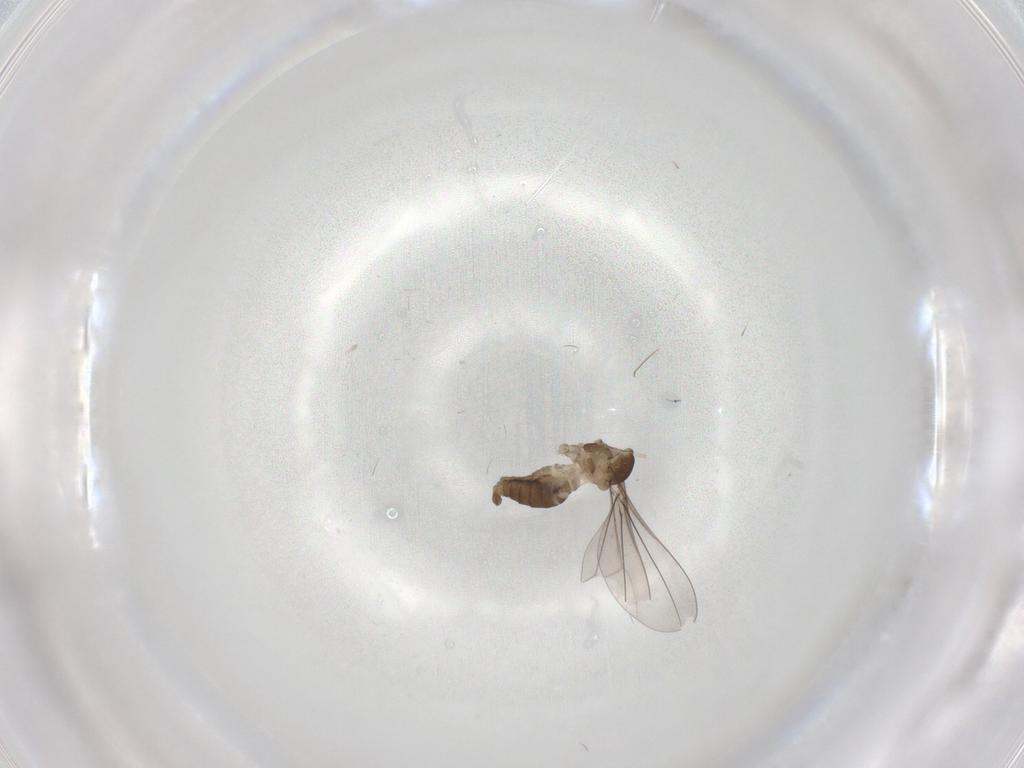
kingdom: Animalia
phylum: Arthropoda
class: Insecta
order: Diptera
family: Cecidomyiidae
